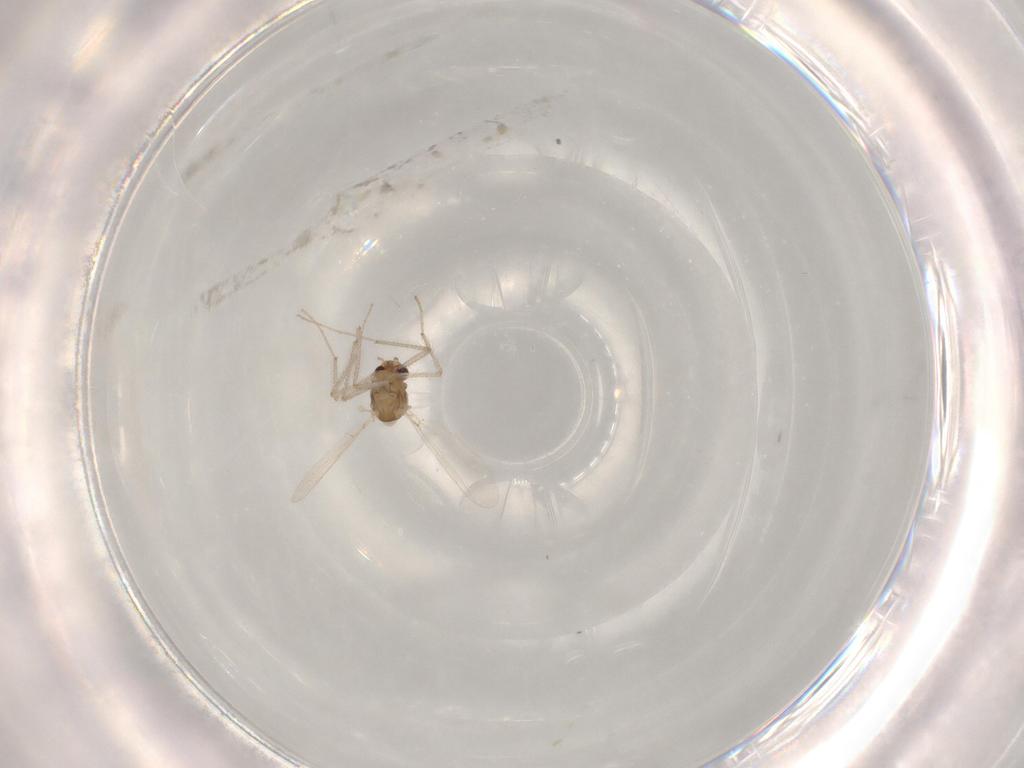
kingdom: Animalia
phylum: Arthropoda
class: Insecta
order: Diptera
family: Chironomidae
